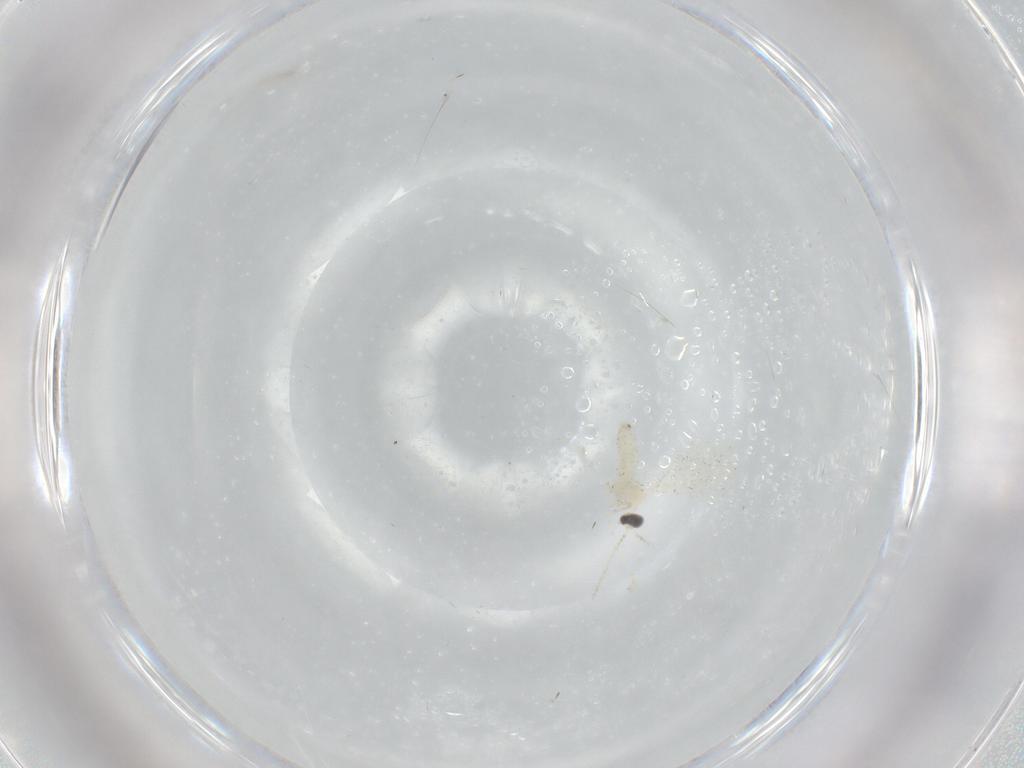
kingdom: Animalia
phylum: Arthropoda
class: Insecta
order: Diptera
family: Cecidomyiidae
